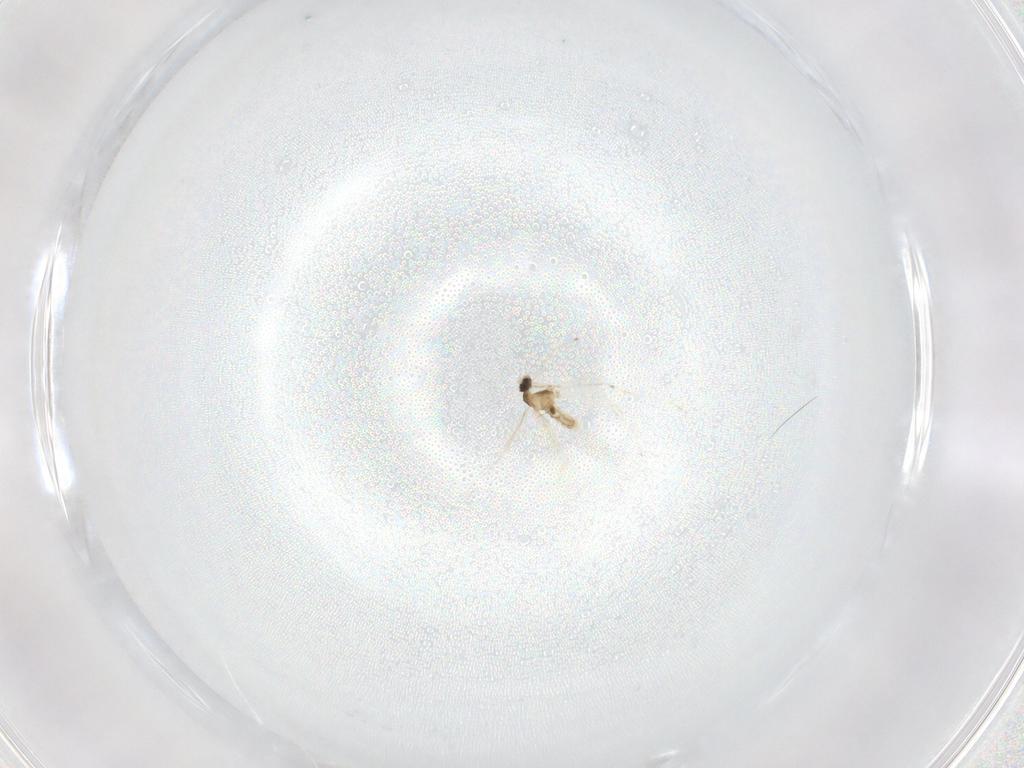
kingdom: Animalia
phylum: Arthropoda
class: Insecta
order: Diptera
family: Cecidomyiidae
